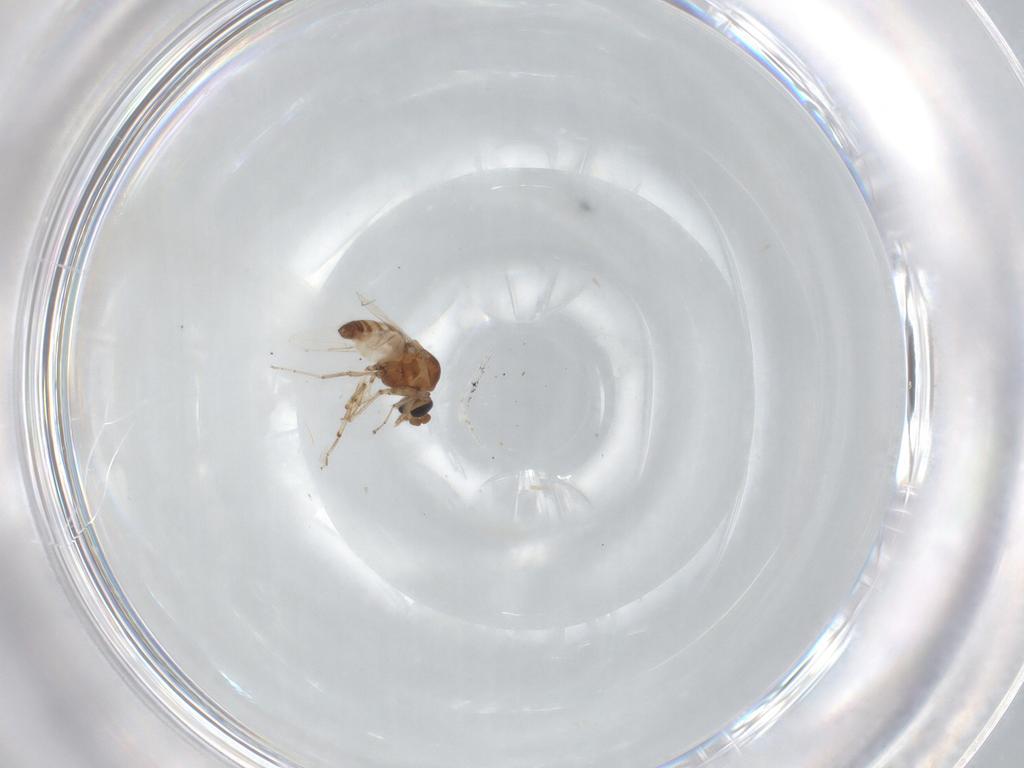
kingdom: Animalia
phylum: Arthropoda
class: Insecta
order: Diptera
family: Ceratopogonidae
